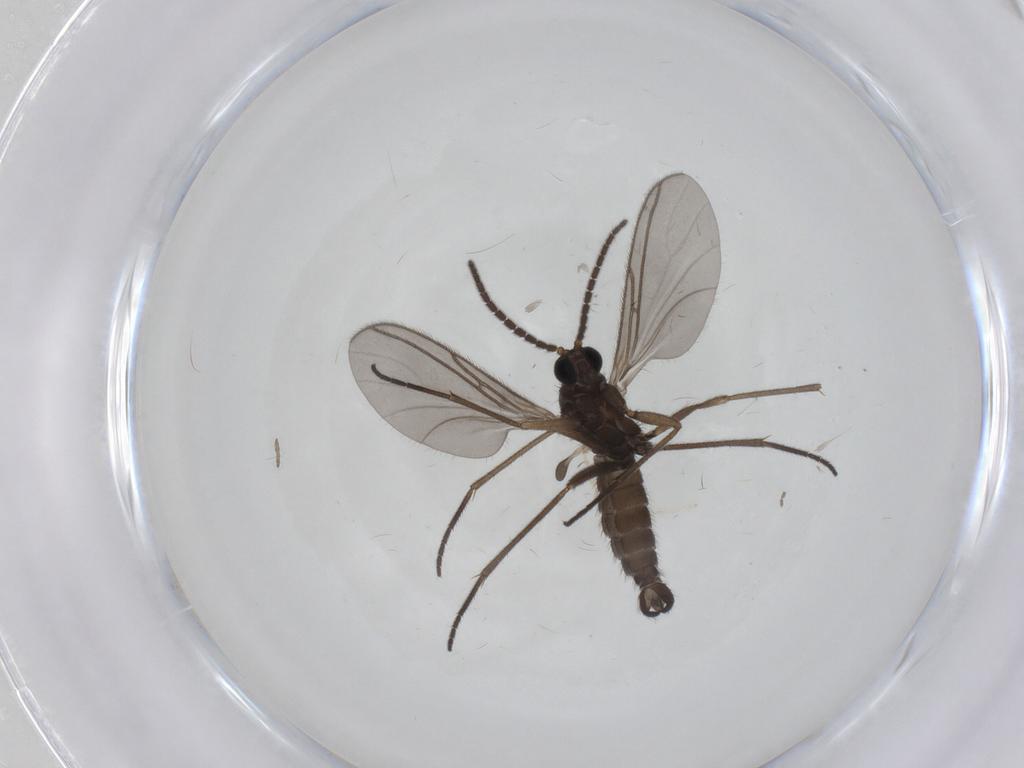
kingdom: Animalia
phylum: Arthropoda
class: Insecta
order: Diptera
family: Sciaridae
